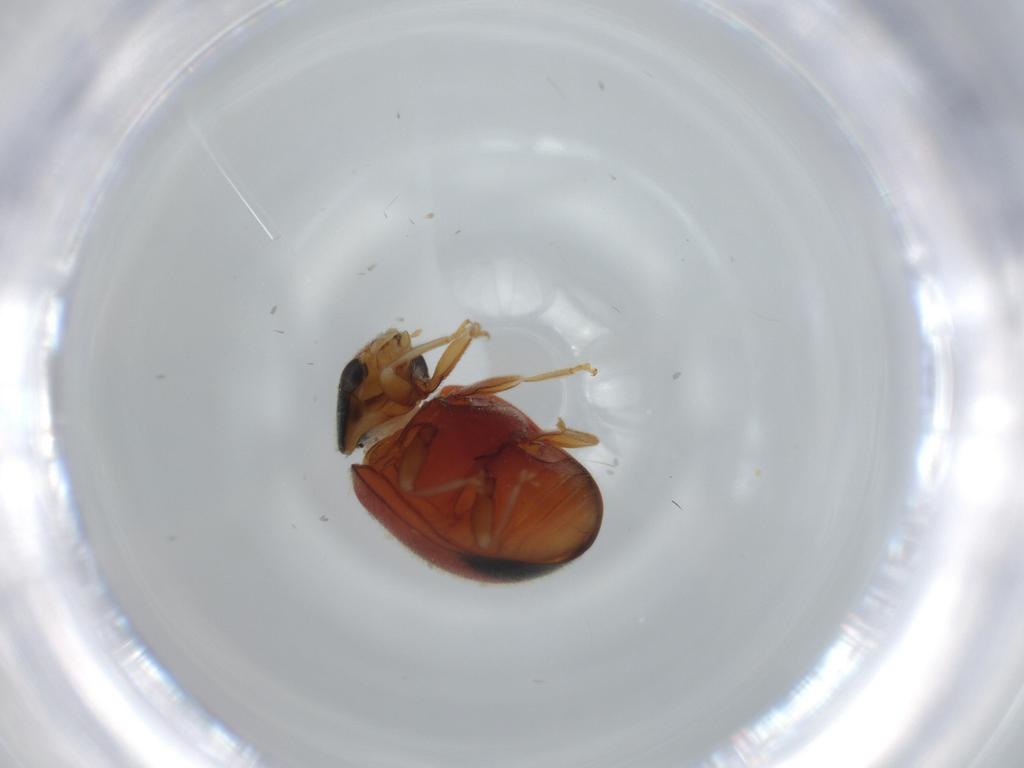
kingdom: Animalia
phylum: Arthropoda
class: Insecta
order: Coleoptera
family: Coccinellidae
